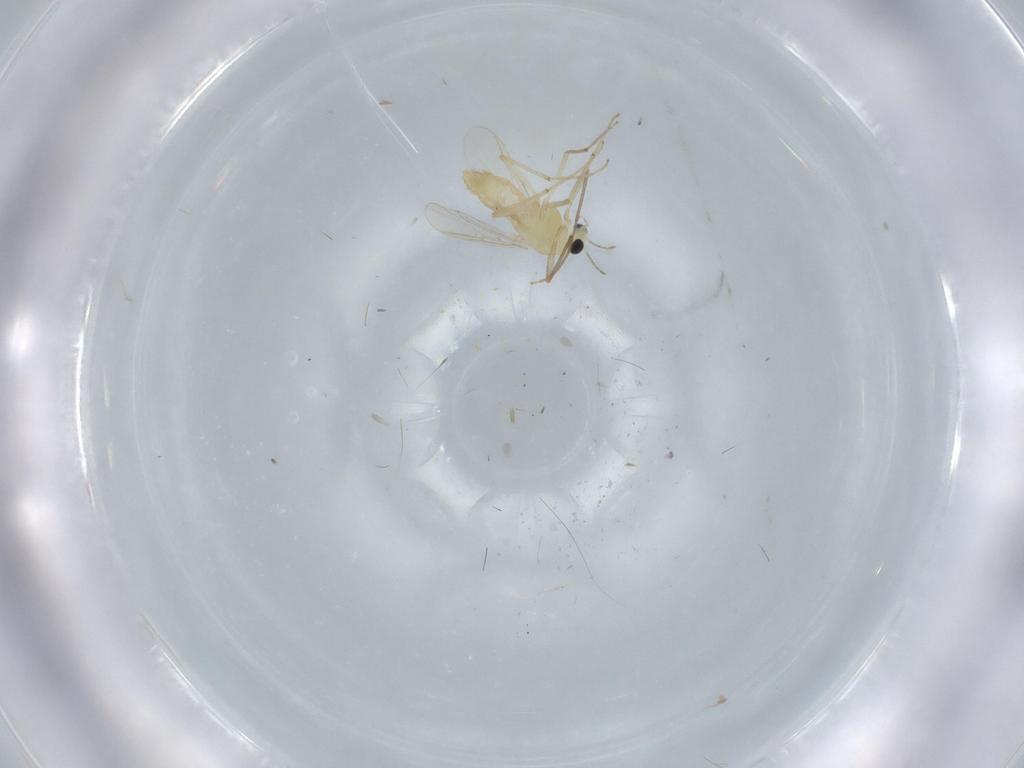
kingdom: Animalia
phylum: Arthropoda
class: Insecta
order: Diptera
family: Chironomidae
